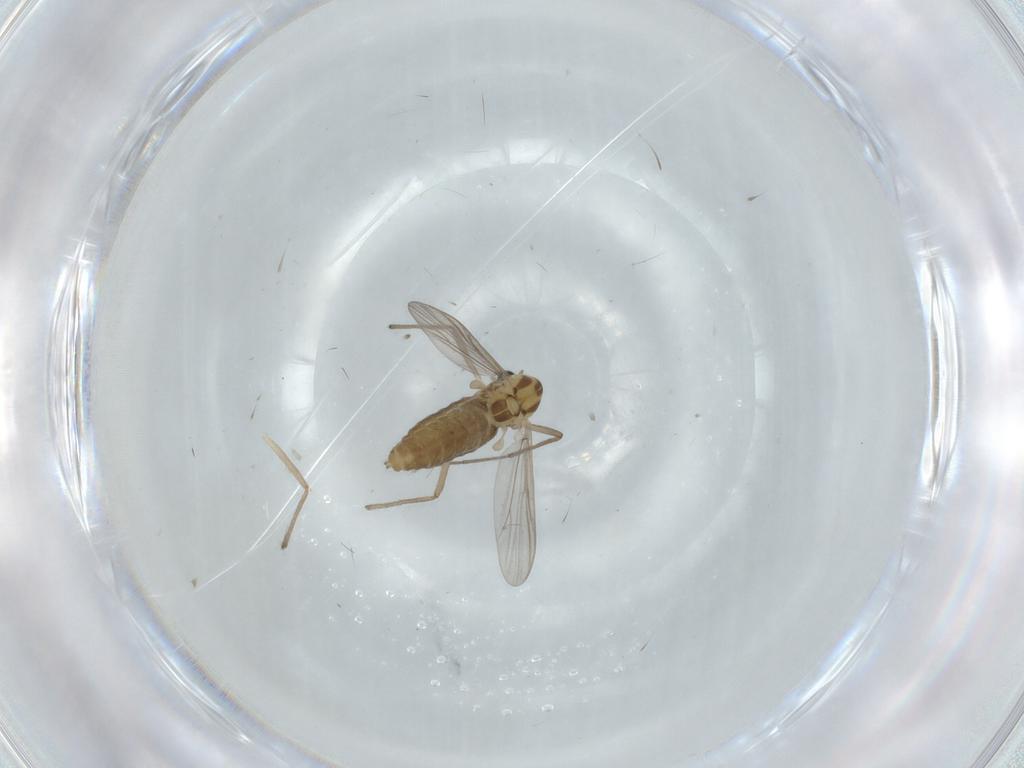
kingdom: Animalia
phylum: Arthropoda
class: Insecta
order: Diptera
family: Chironomidae
